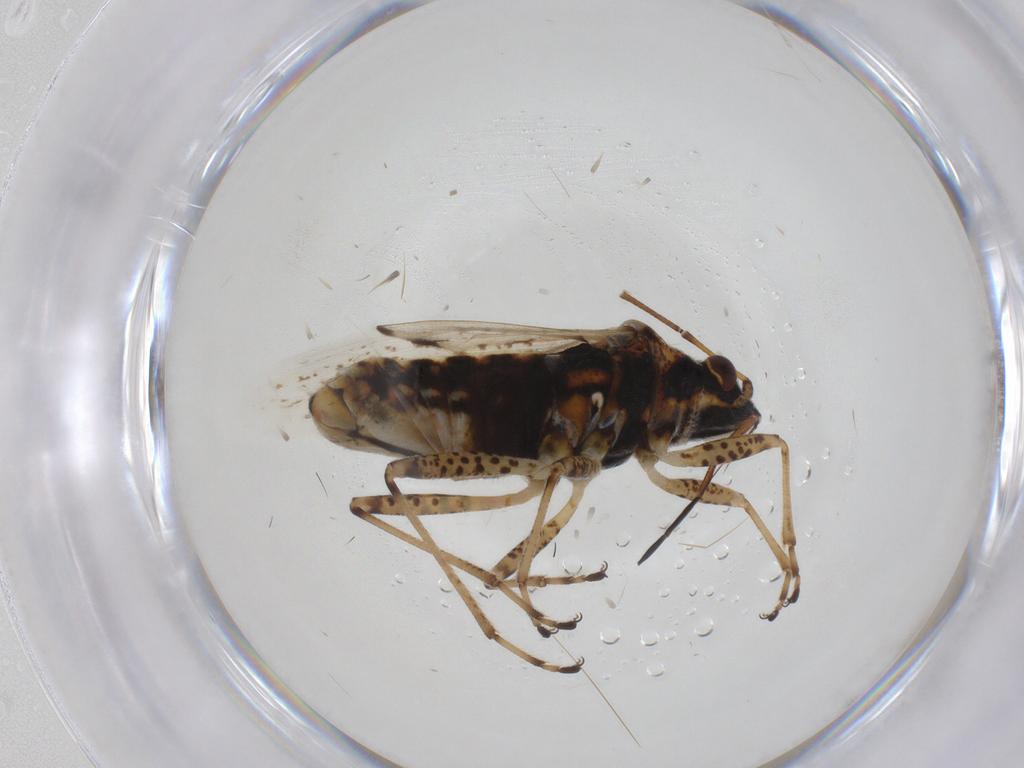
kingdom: Animalia
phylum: Arthropoda
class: Insecta
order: Hemiptera
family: Lygaeidae
